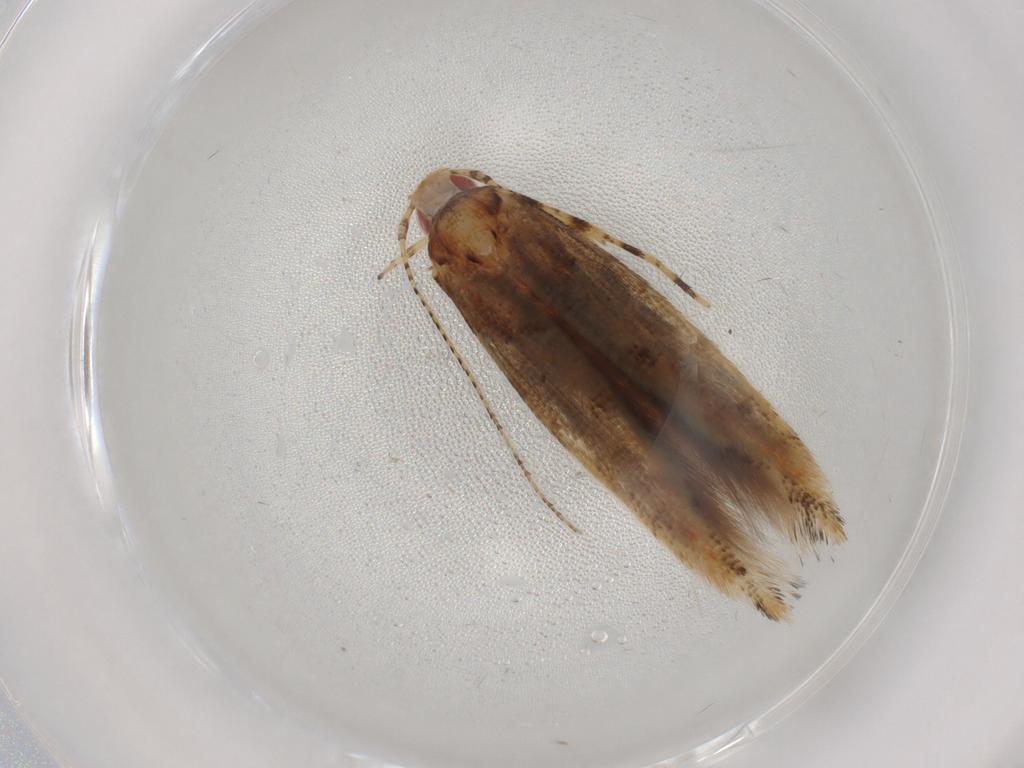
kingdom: Animalia
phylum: Arthropoda
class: Insecta
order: Lepidoptera
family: Cosmopterigidae
